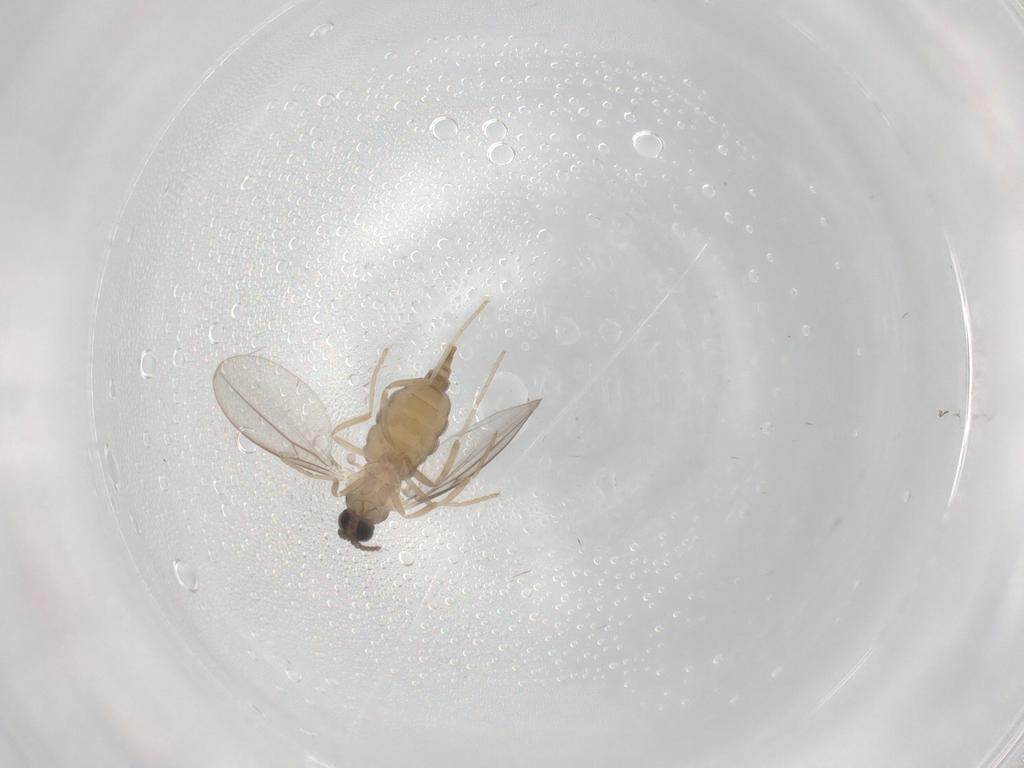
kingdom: Animalia
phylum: Arthropoda
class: Insecta
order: Diptera
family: Cecidomyiidae
